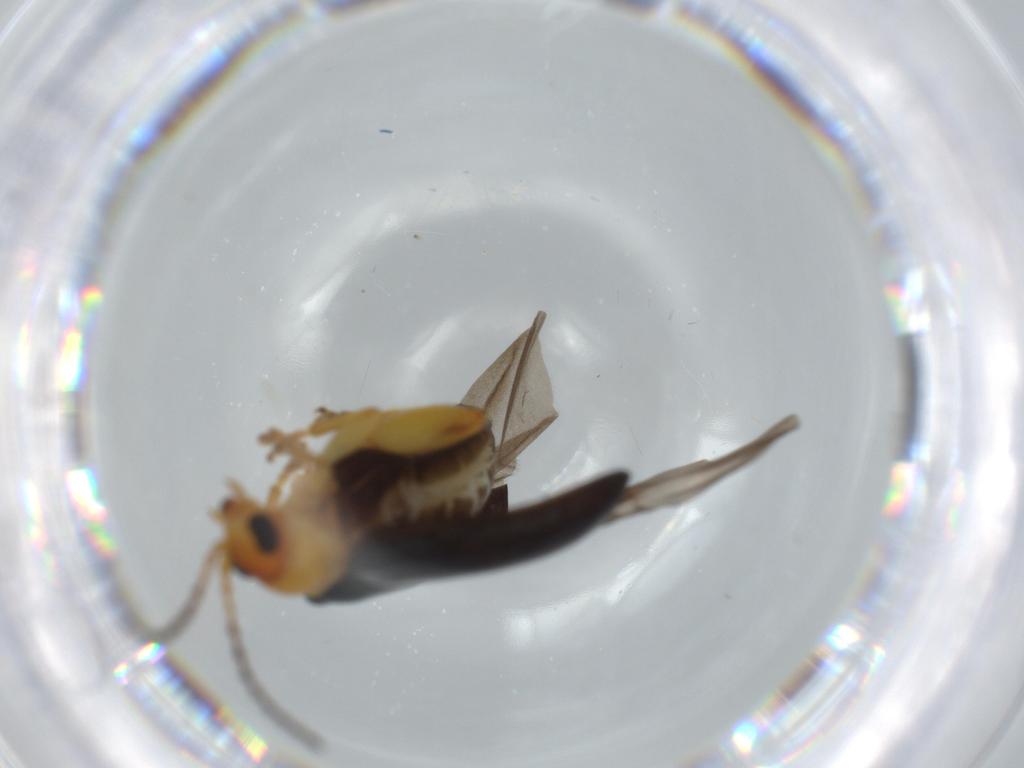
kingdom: Animalia
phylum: Arthropoda
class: Insecta
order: Coleoptera
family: Chrysomelidae
